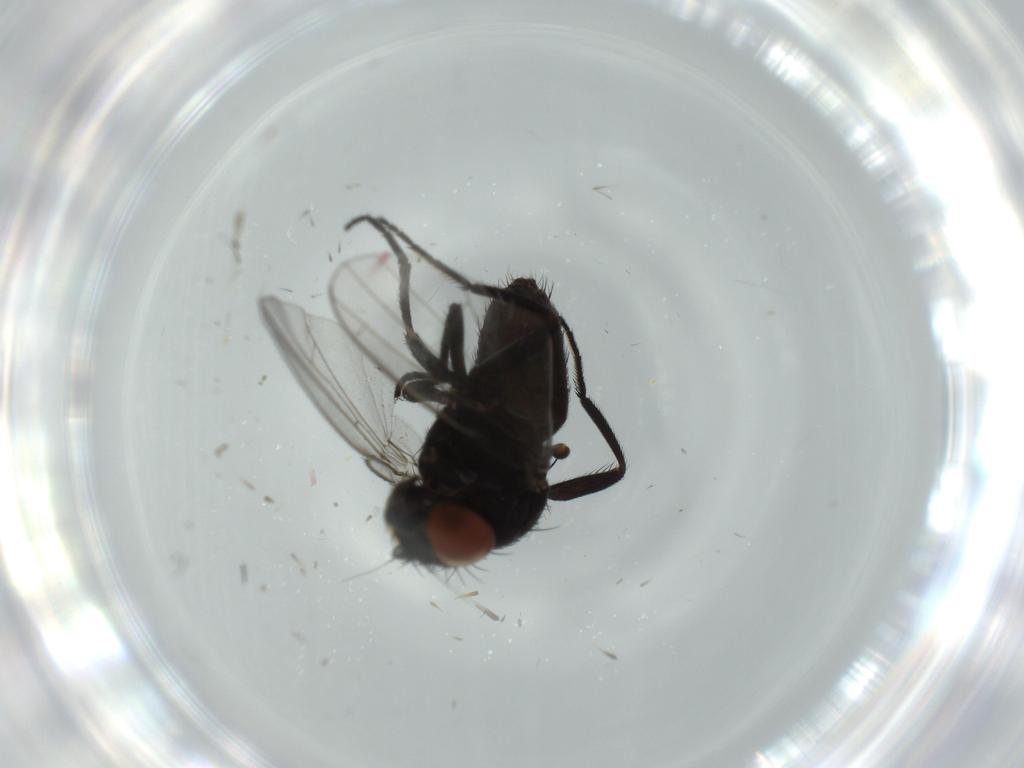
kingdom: Animalia
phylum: Arthropoda
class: Insecta
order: Diptera
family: Milichiidae
